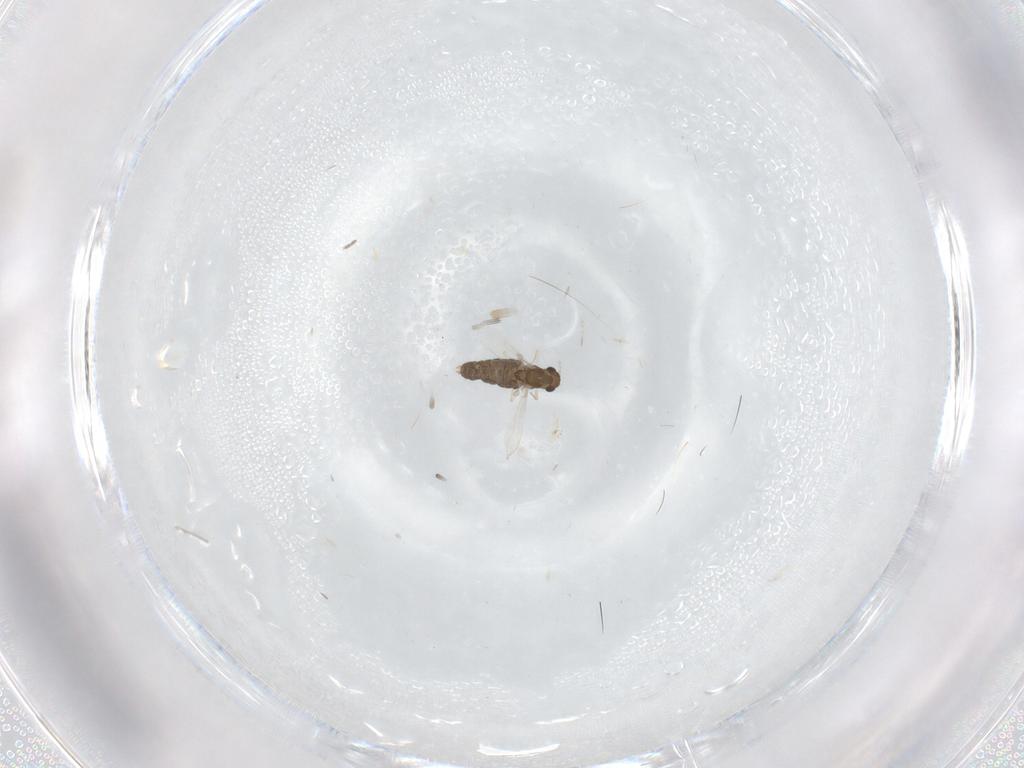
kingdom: Animalia
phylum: Arthropoda
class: Insecta
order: Diptera
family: Chironomidae
